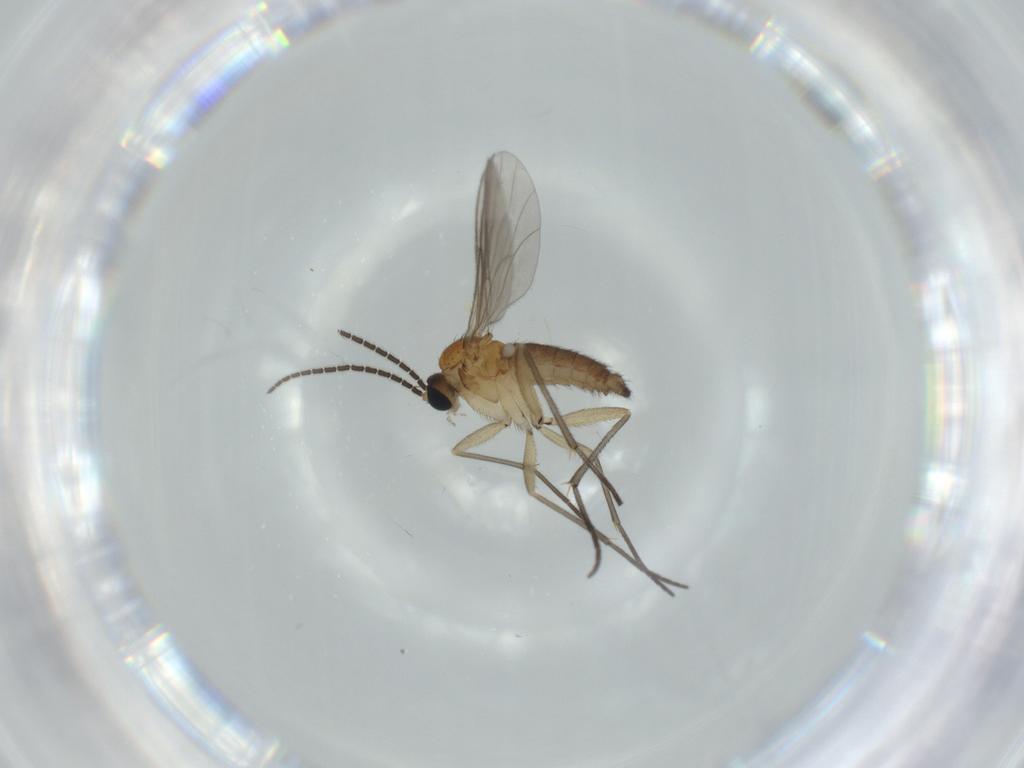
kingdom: Animalia
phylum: Arthropoda
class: Insecta
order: Diptera
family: Sciaridae
